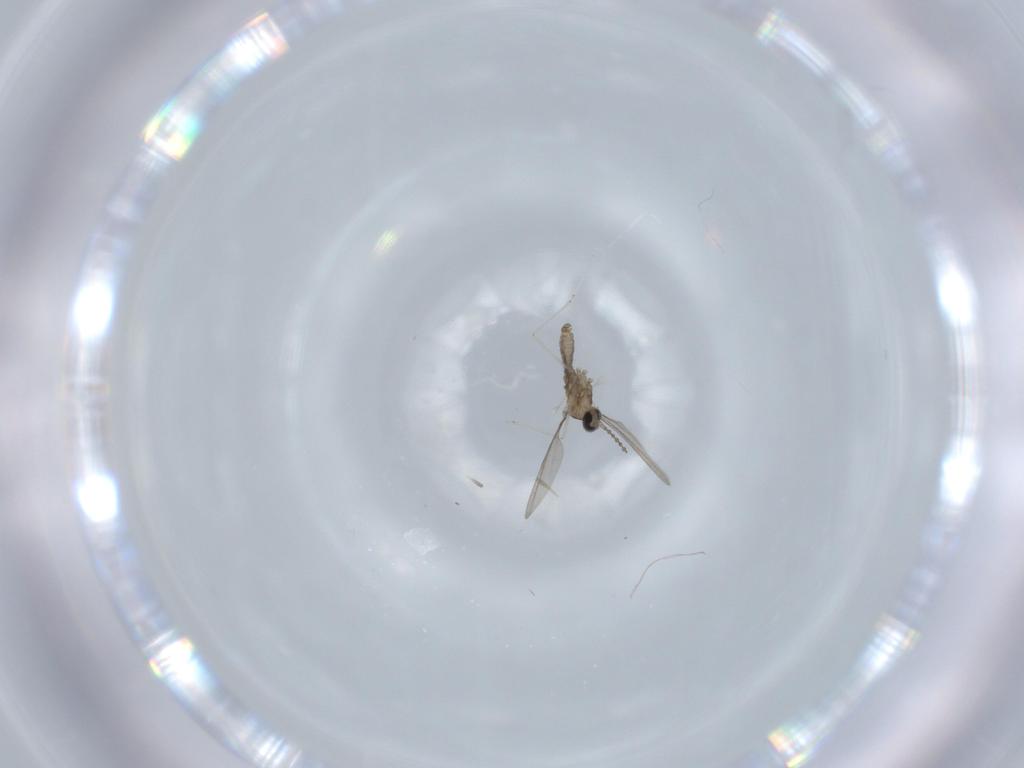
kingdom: Animalia
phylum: Arthropoda
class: Insecta
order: Diptera
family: Cecidomyiidae
